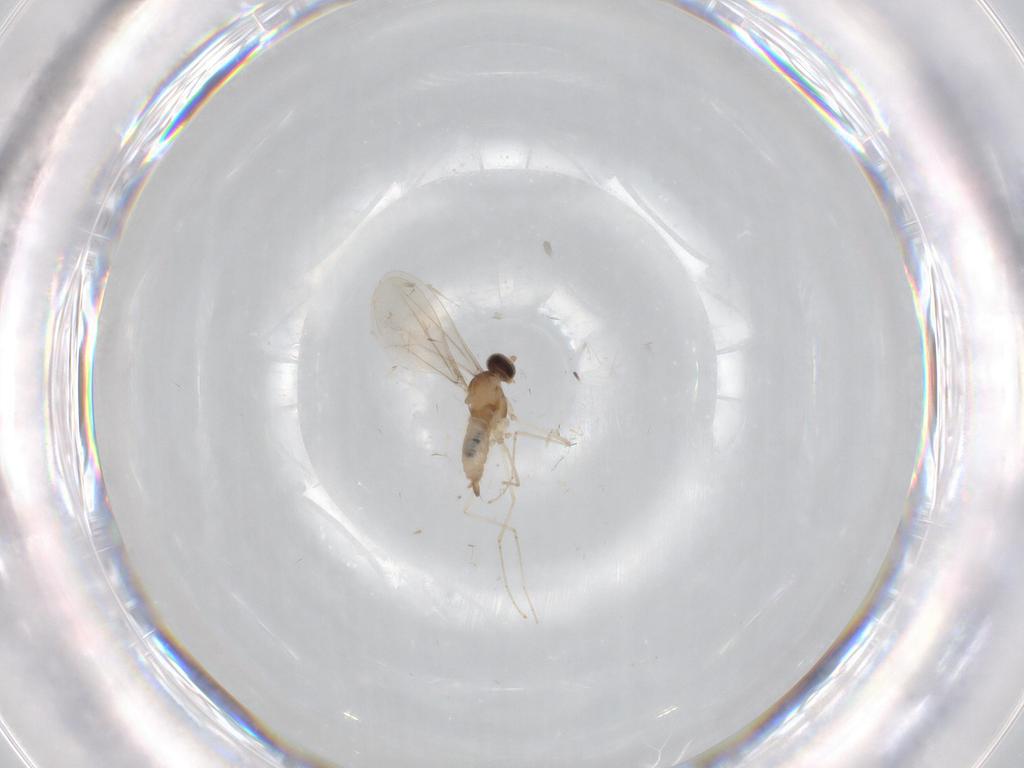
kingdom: Animalia
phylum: Arthropoda
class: Insecta
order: Diptera
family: Cecidomyiidae
